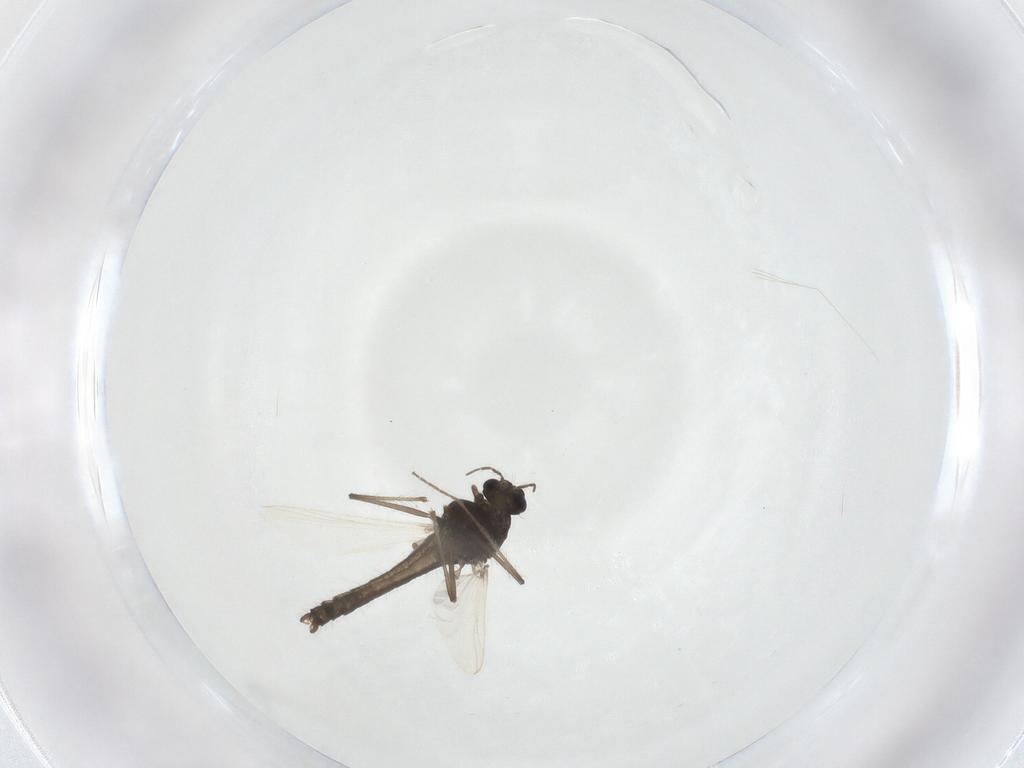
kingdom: Animalia
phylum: Arthropoda
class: Insecta
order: Diptera
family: Chironomidae
